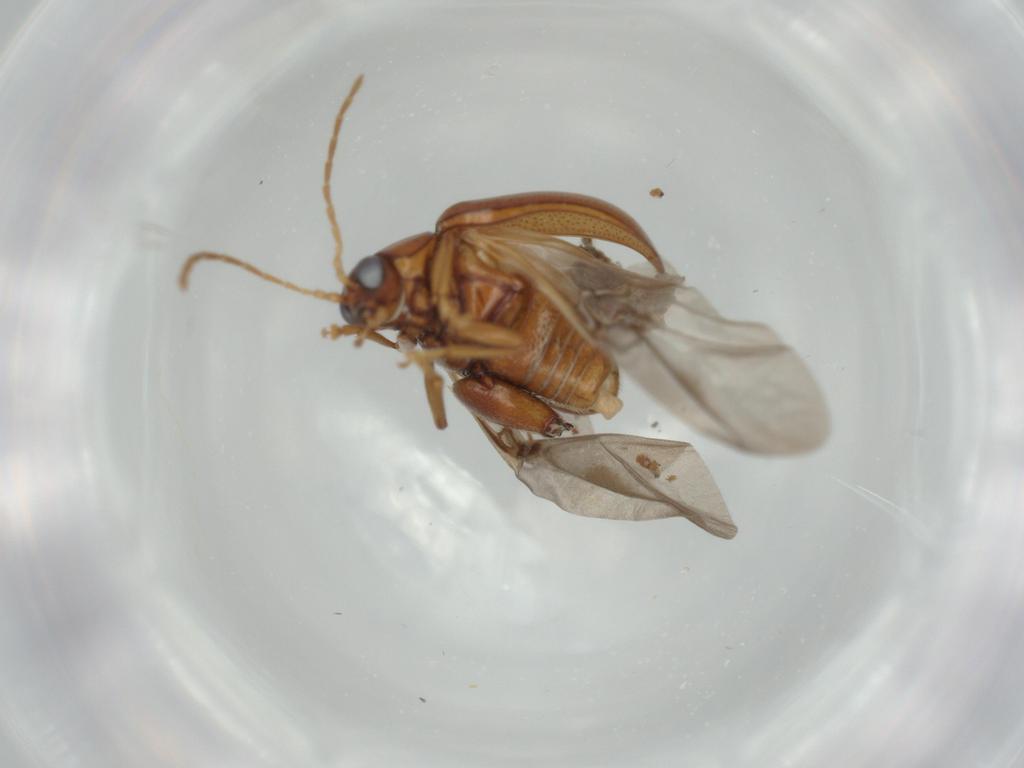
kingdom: Animalia
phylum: Arthropoda
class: Insecta
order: Coleoptera
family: Chrysomelidae
